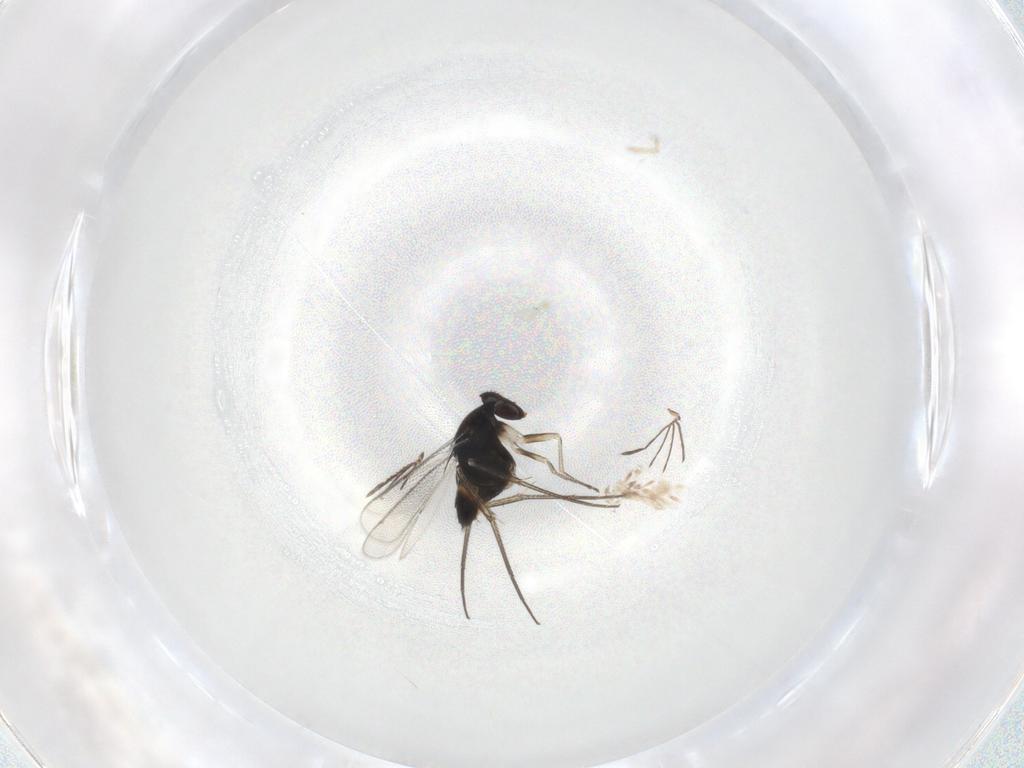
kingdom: Animalia
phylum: Arthropoda
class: Insecta
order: Hymenoptera
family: Eulophidae
